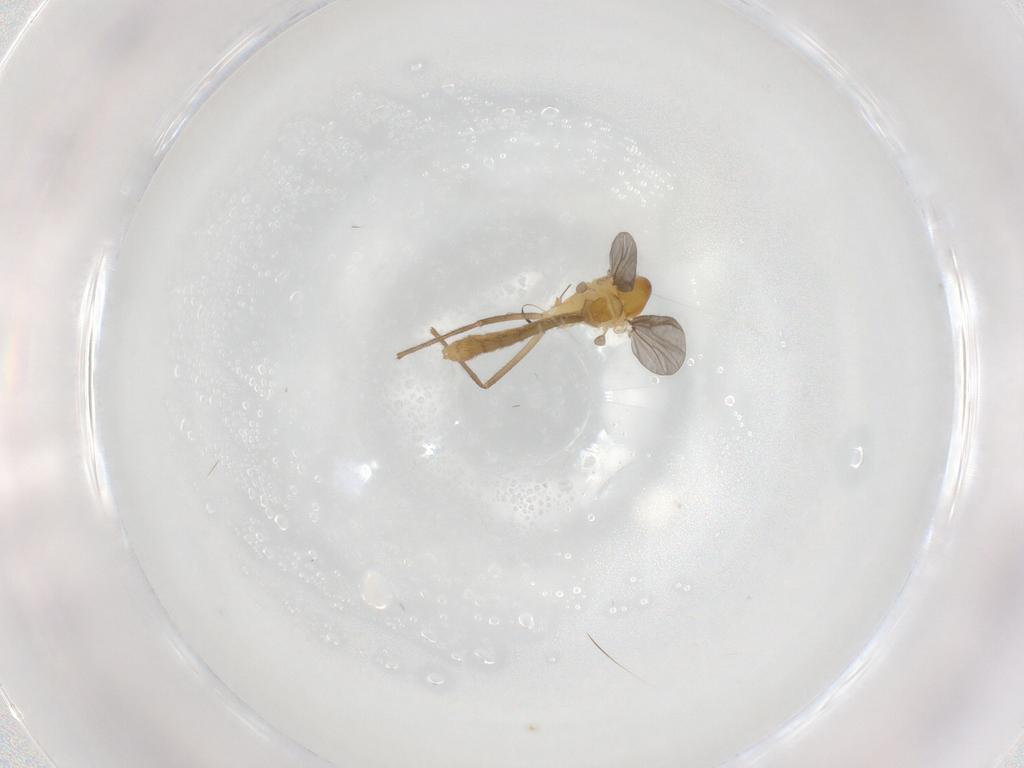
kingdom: Animalia
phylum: Arthropoda
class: Insecta
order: Diptera
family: Chironomidae
